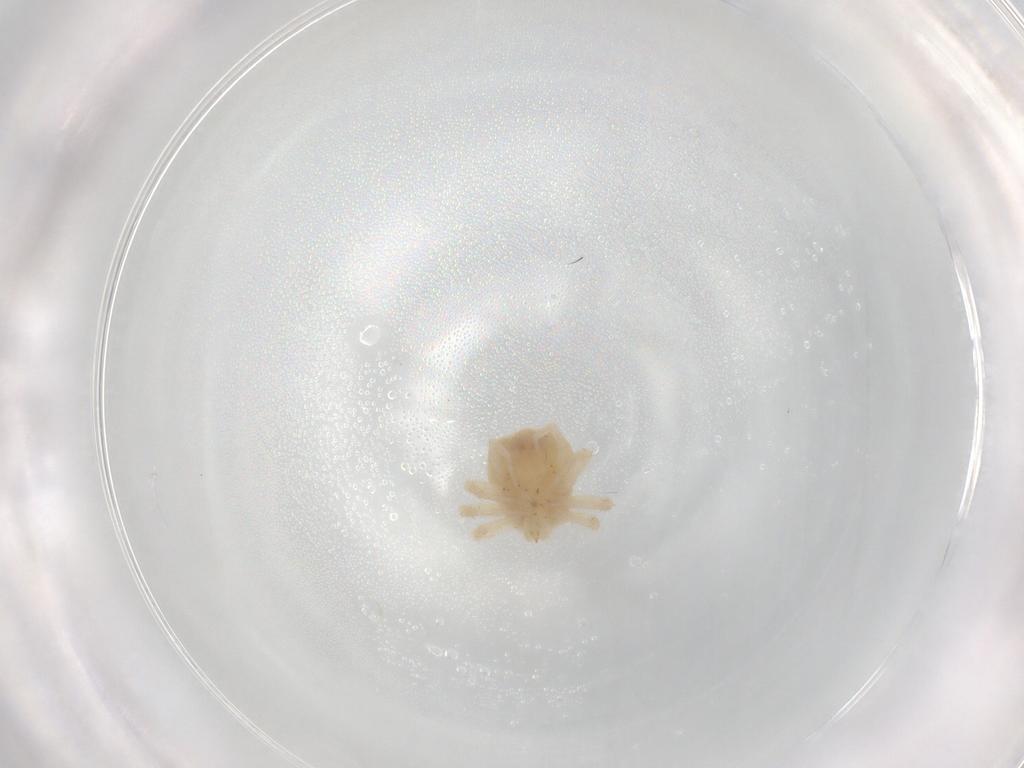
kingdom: Animalia
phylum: Arthropoda
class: Arachnida
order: Trombidiformes
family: Anystidae
